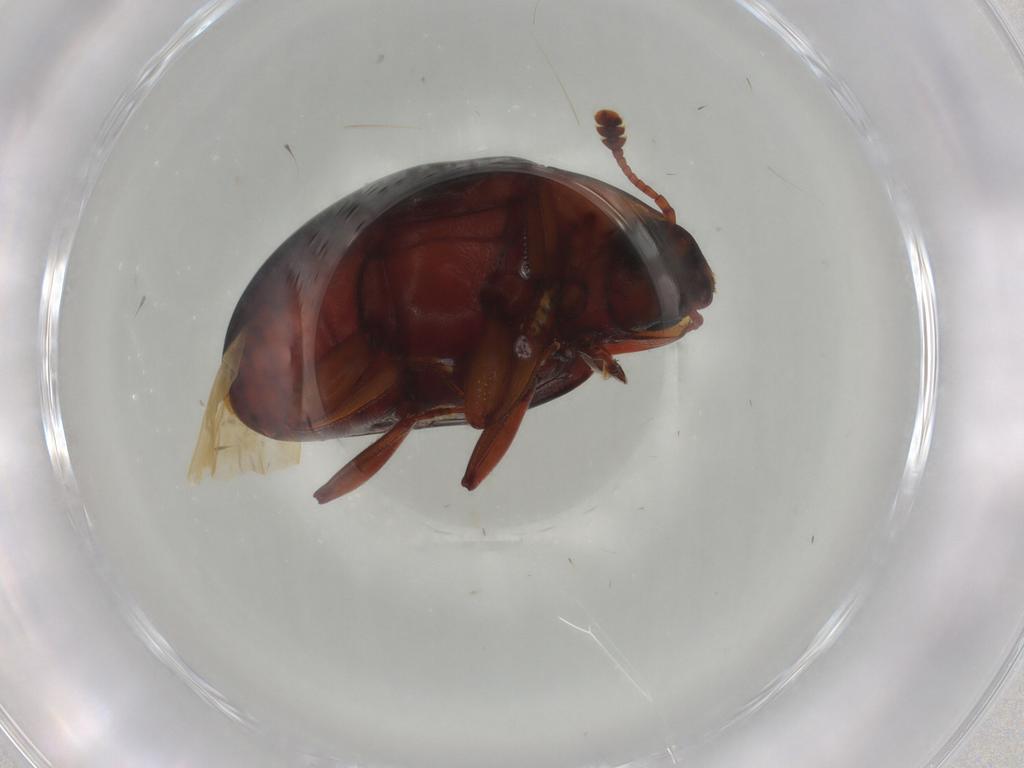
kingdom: Animalia
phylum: Arthropoda
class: Insecta
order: Coleoptera
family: Zopheridae
